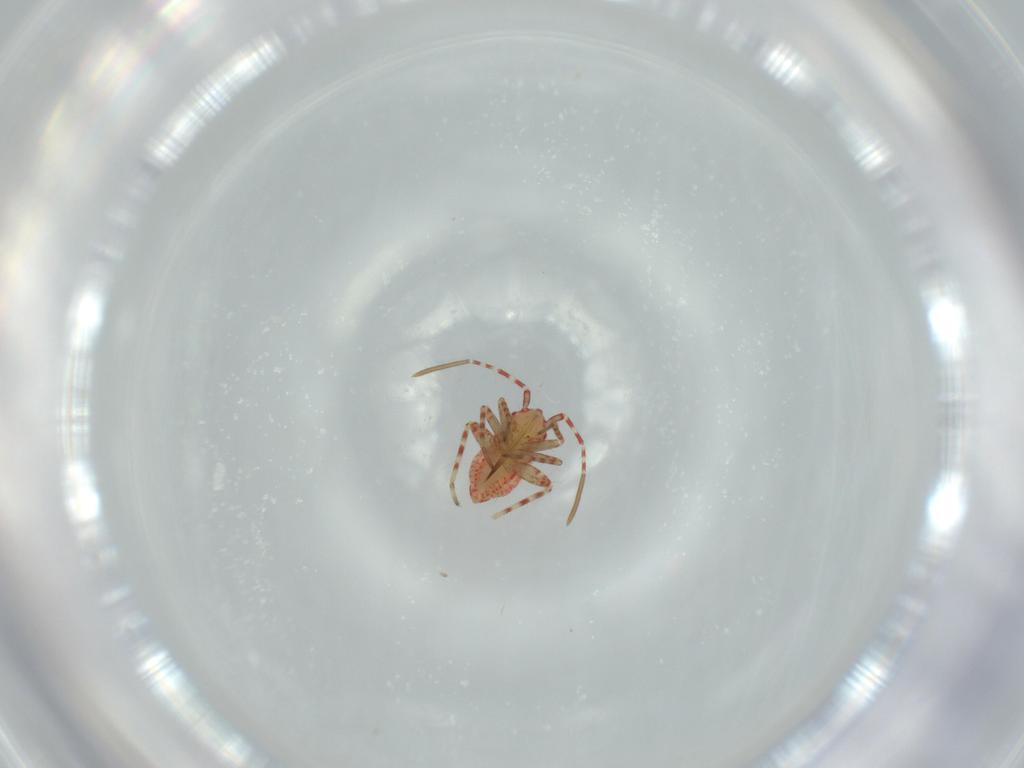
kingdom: Animalia
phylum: Arthropoda
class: Insecta
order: Hemiptera
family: Miridae
